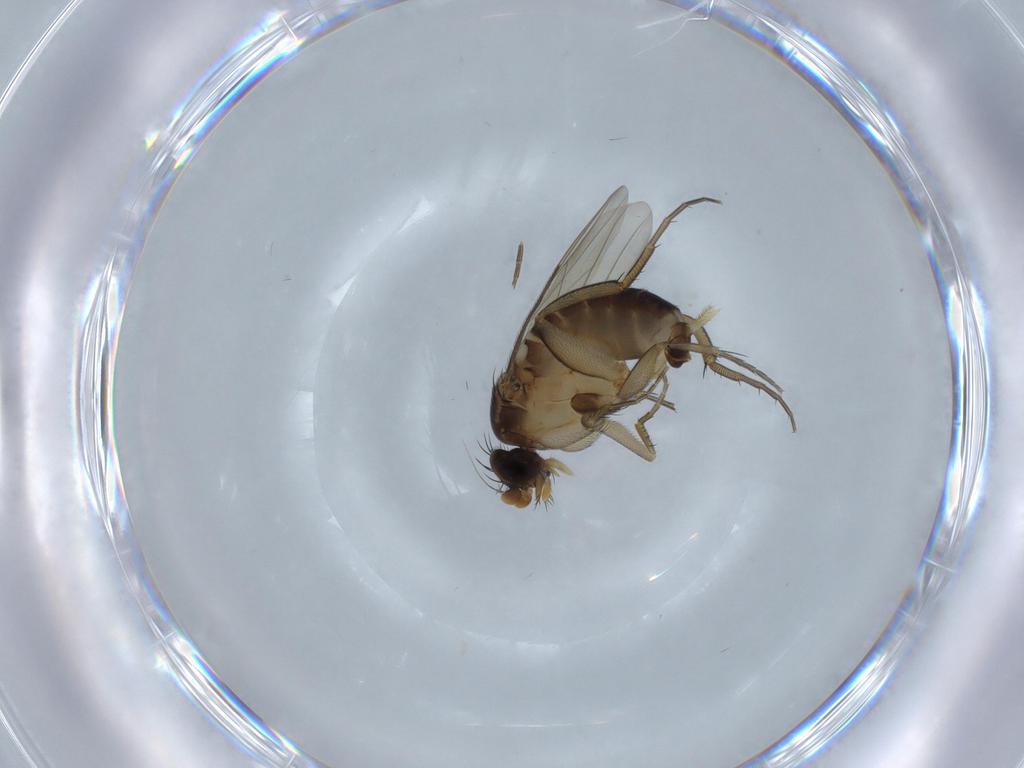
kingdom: Animalia
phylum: Arthropoda
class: Insecta
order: Diptera
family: Phoridae
